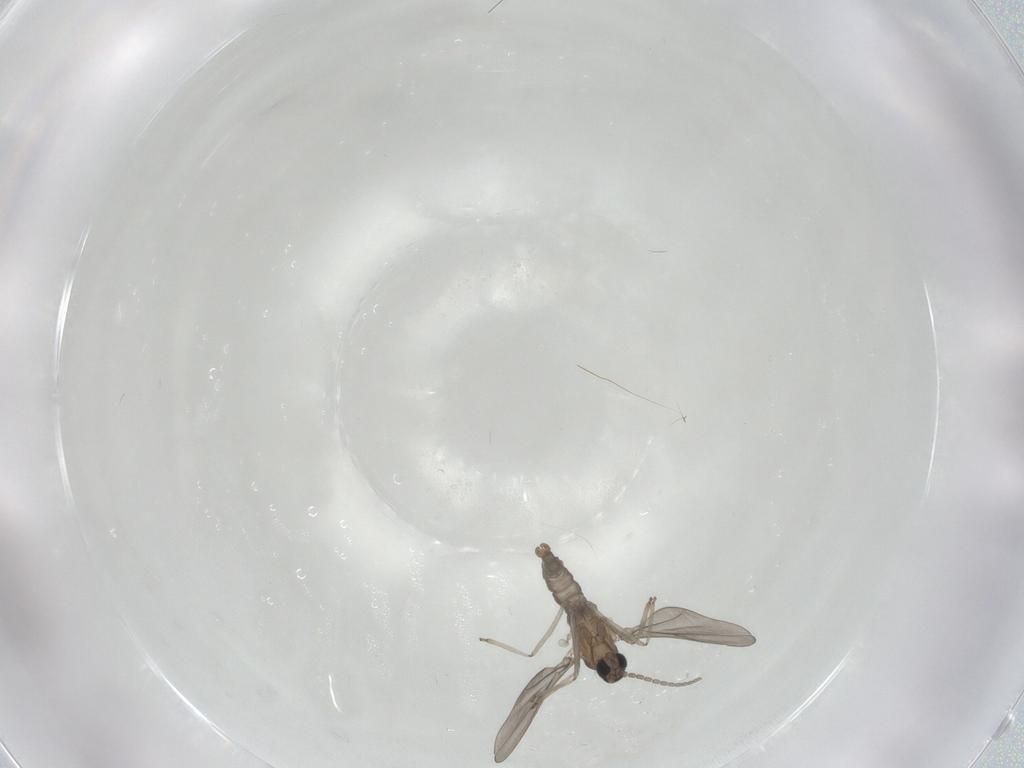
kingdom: Animalia
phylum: Arthropoda
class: Insecta
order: Diptera
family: Chironomidae
